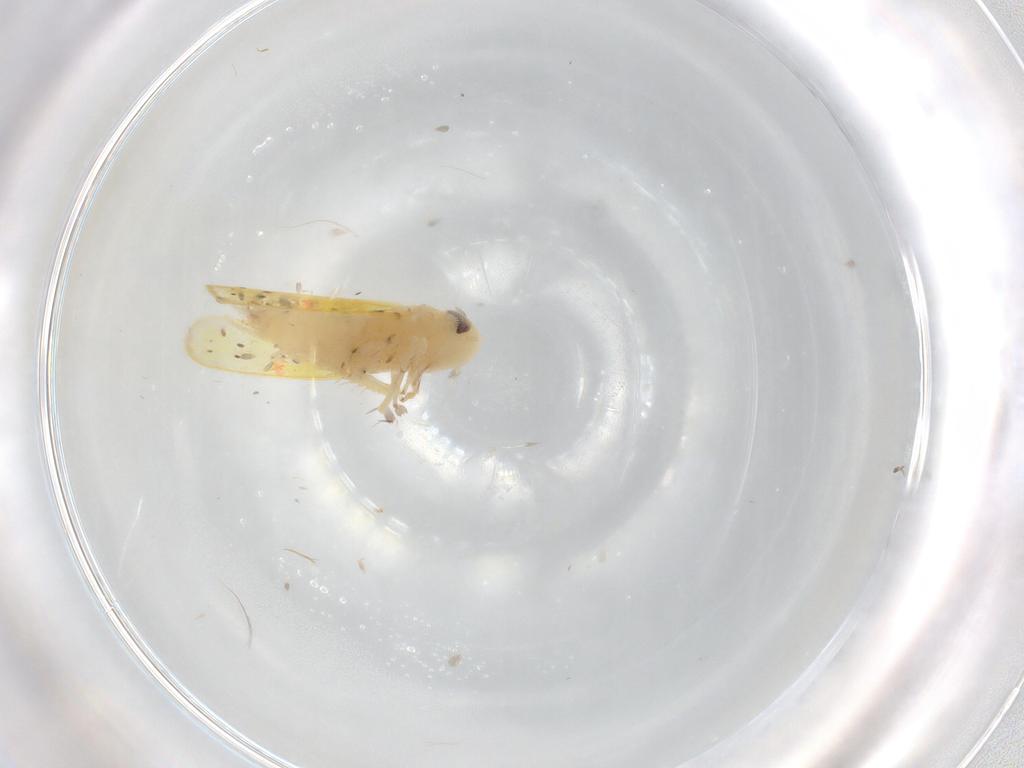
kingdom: Animalia
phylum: Arthropoda
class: Insecta
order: Hemiptera
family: Cicadellidae
